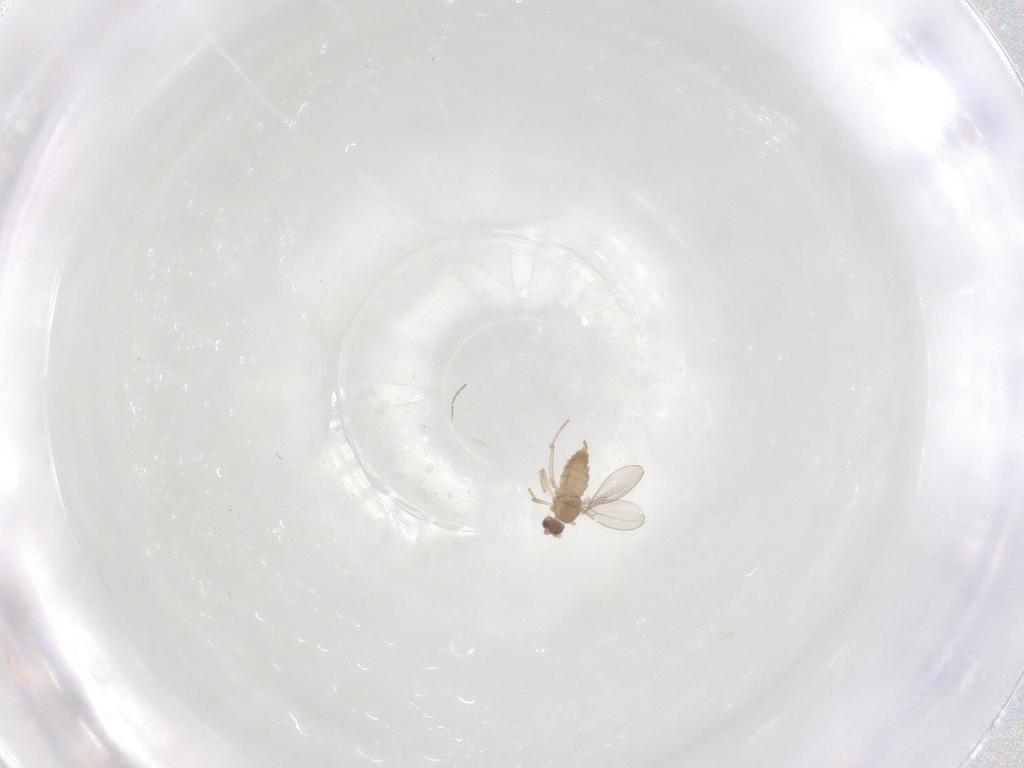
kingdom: Animalia
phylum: Arthropoda
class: Insecta
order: Diptera
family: Cecidomyiidae
